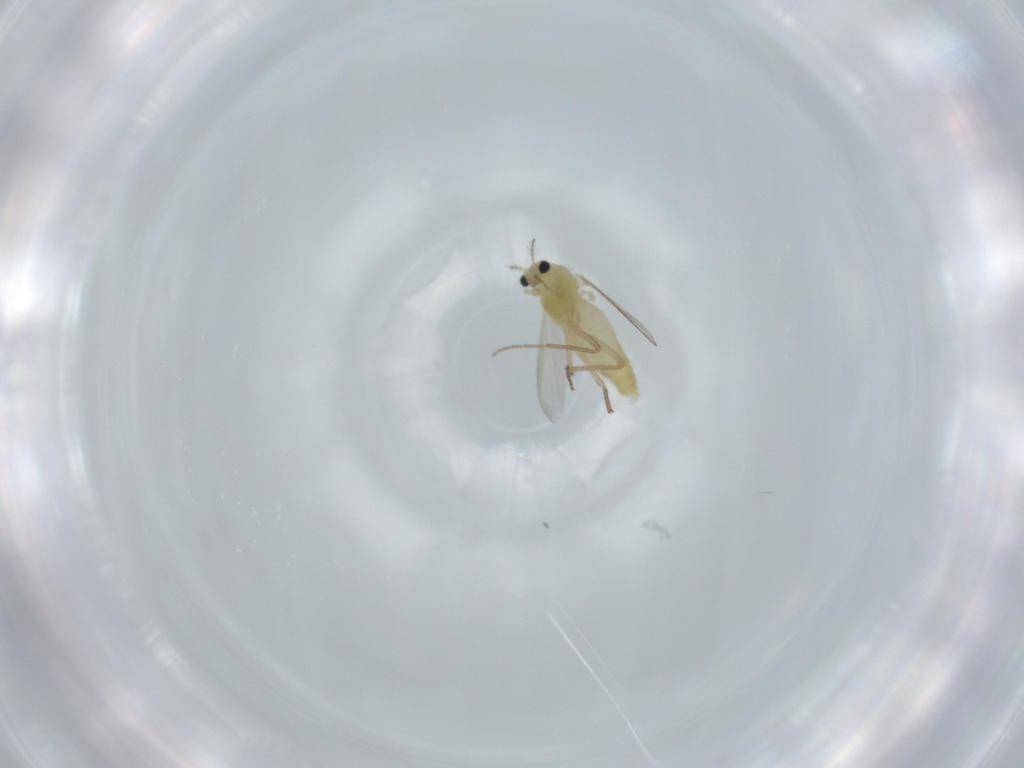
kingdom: Animalia
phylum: Arthropoda
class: Insecta
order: Diptera
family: Chironomidae
